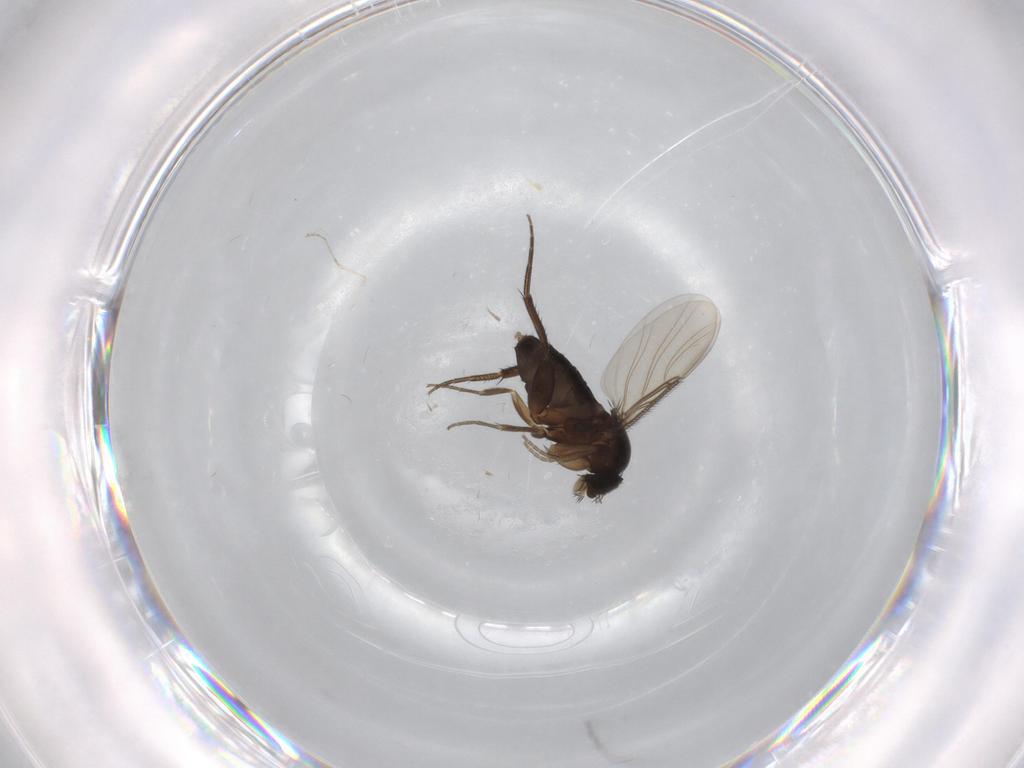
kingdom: Animalia
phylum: Arthropoda
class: Insecta
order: Diptera
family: Phoridae
